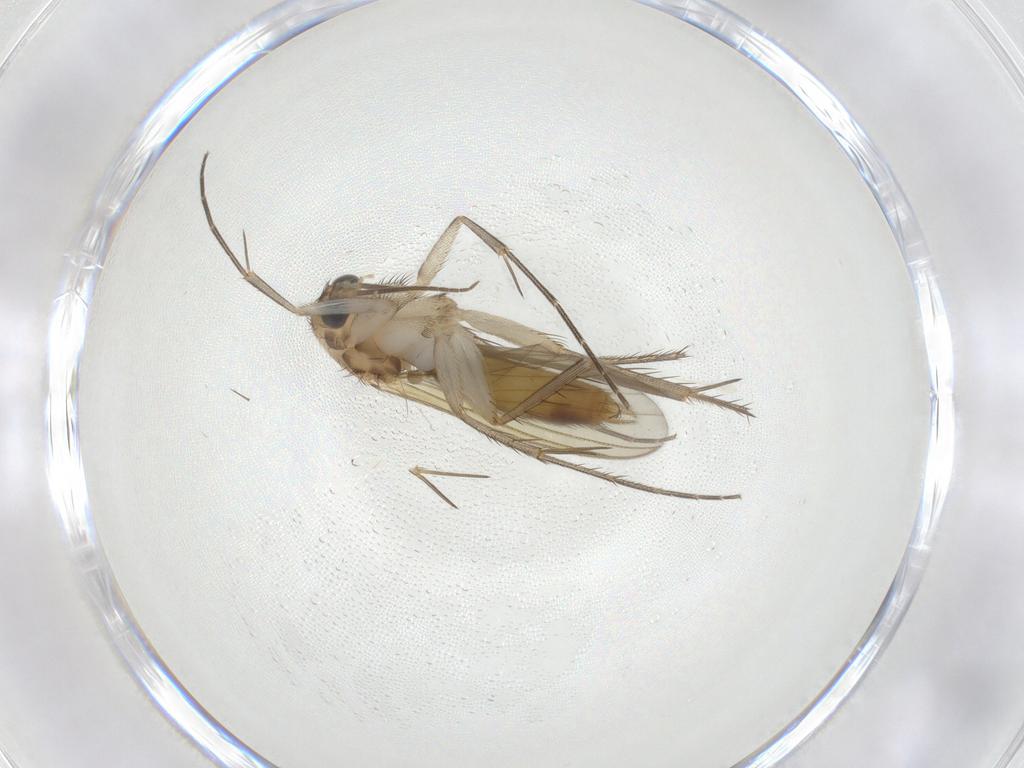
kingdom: Animalia
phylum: Arthropoda
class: Insecta
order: Diptera
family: Mycetophilidae
